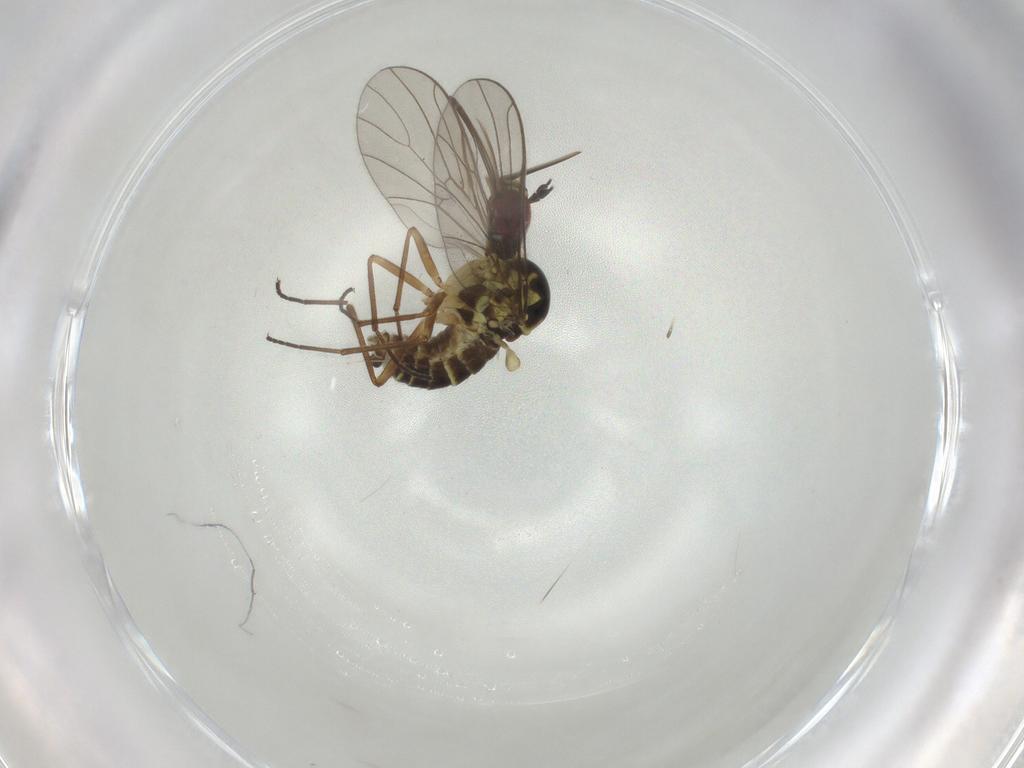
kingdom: Animalia
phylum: Arthropoda
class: Insecta
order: Diptera
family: Bombyliidae
